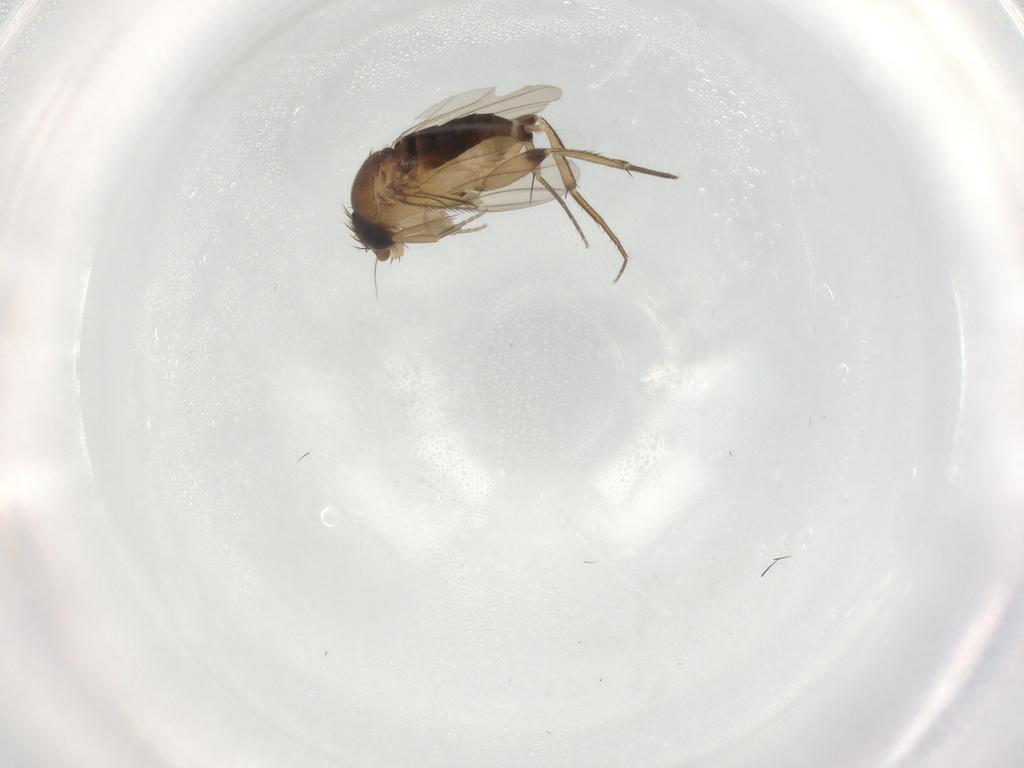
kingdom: Animalia
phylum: Arthropoda
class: Insecta
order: Diptera
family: Phoridae
